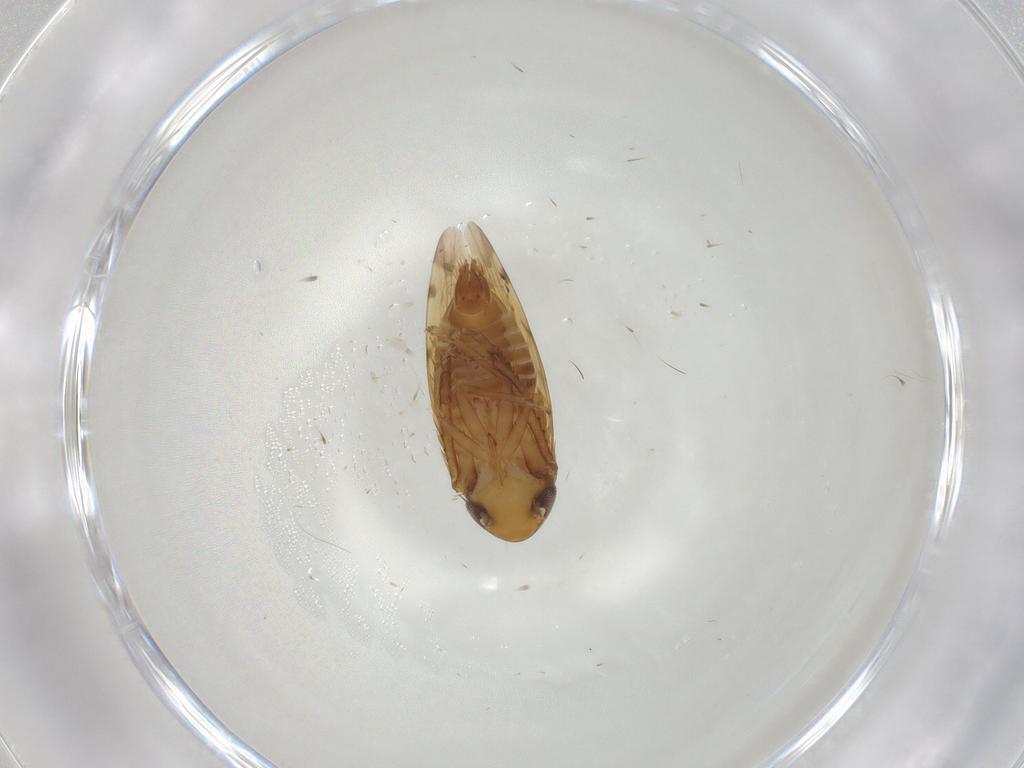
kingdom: Animalia
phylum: Arthropoda
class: Insecta
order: Hemiptera
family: Cicadellidae
